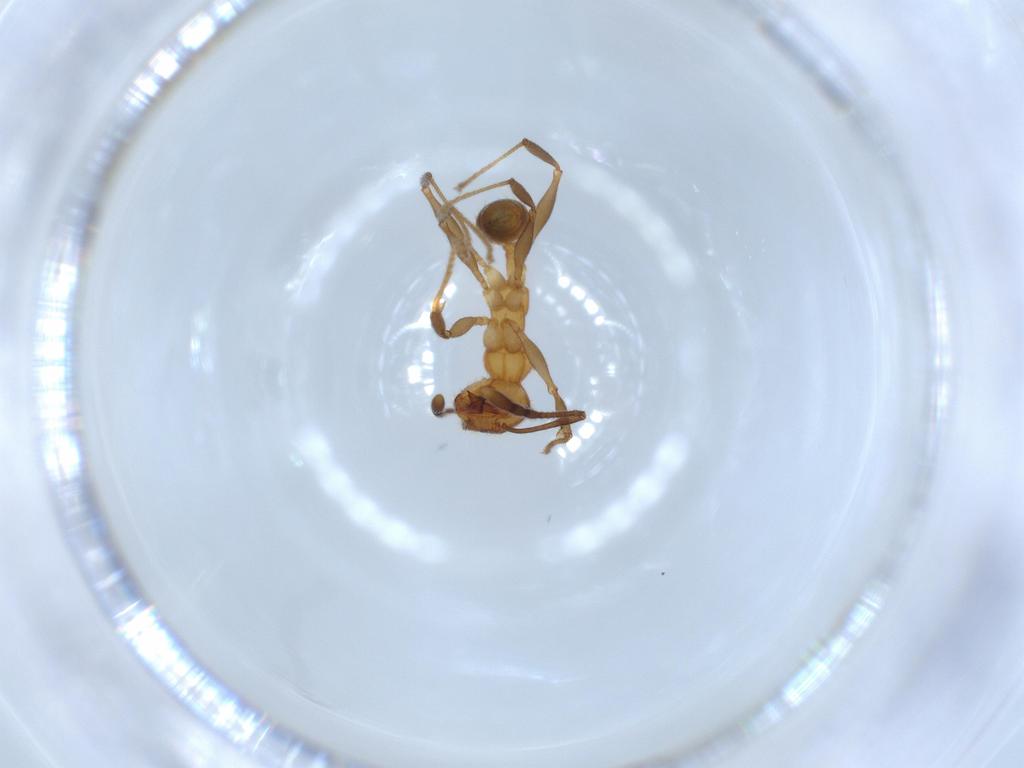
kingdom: Animalia
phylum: Arthropoda
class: Insecta
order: Hymenoptera
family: Formicidae
